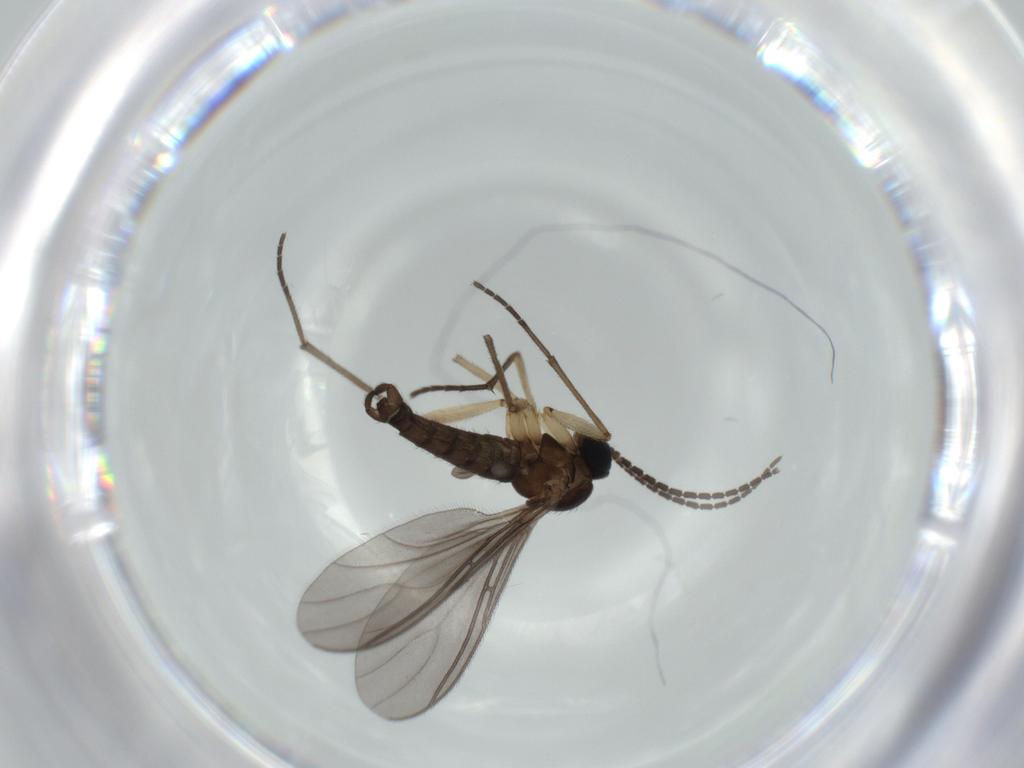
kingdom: Animalia
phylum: Arthropoda
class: Insecta
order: Diptera
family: Sciaridae
